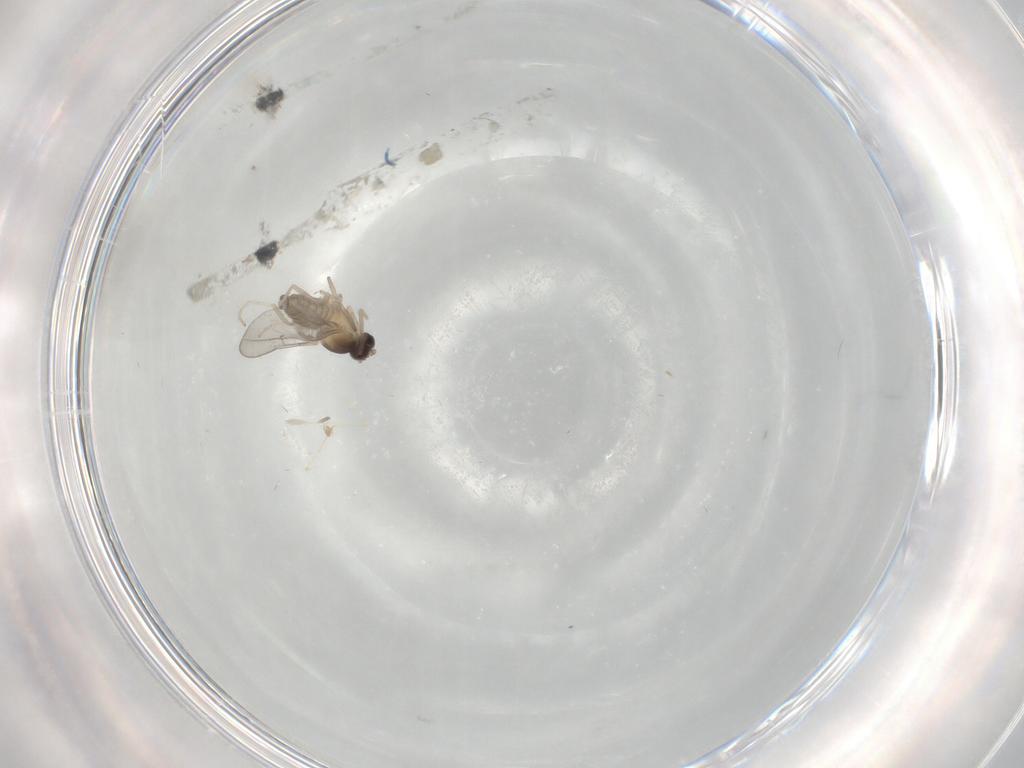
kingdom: Animalia
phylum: Arthropoda
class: Insecta
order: Diptera
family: Cecidomyiidae
